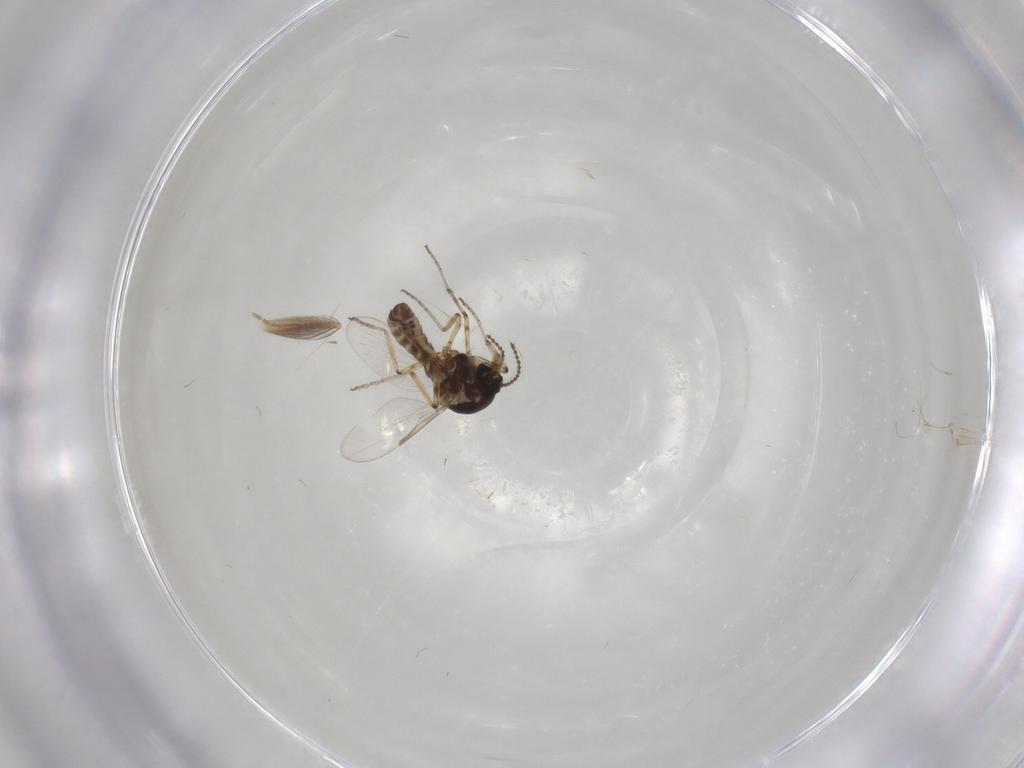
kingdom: Animalia
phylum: Arthropoda
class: Insecta
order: Diptera
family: Ceratopogonidae
